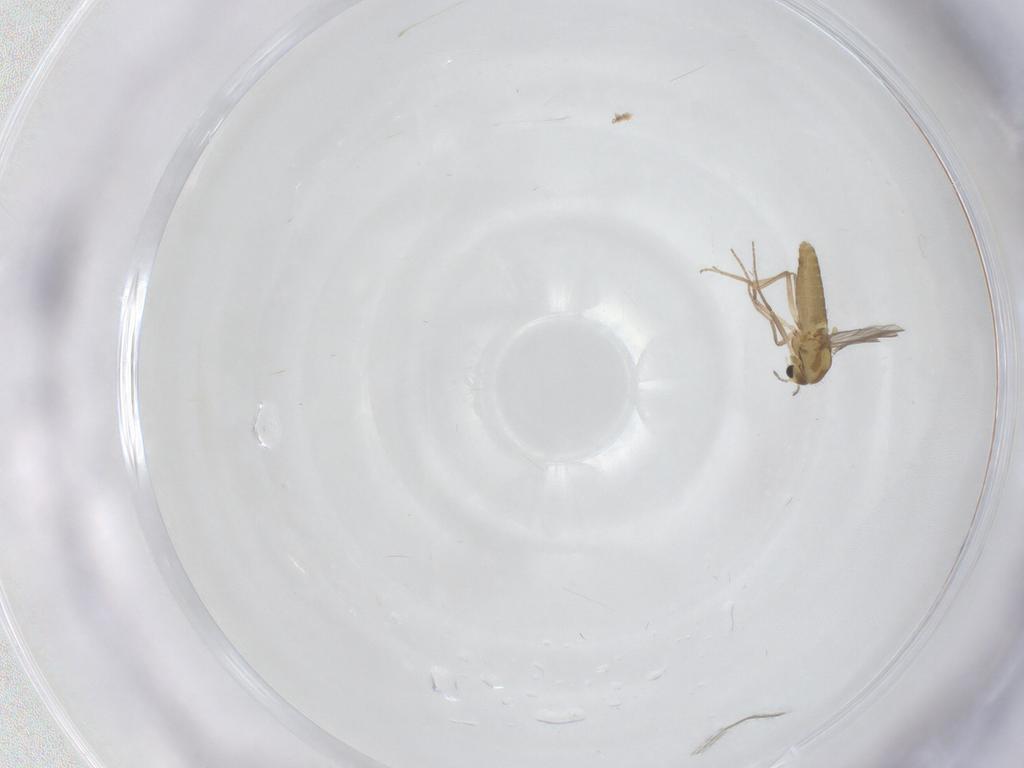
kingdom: Animalia
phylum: Arthropoda
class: Insecta
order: Diptera
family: Chironomidae
